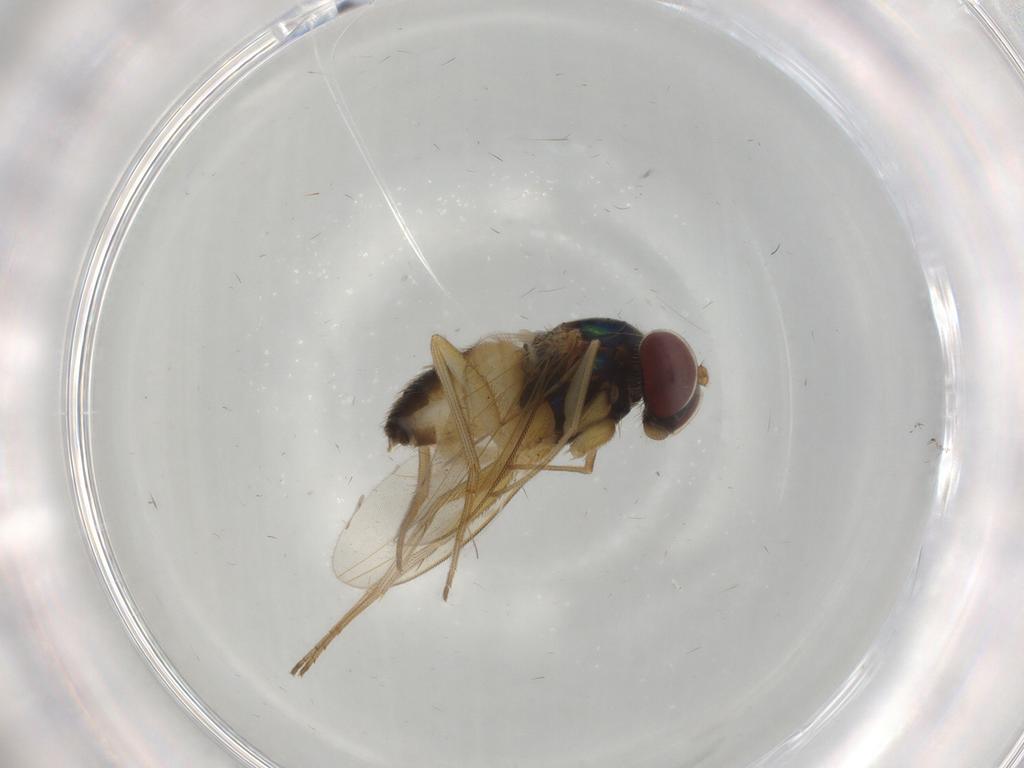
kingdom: Animalia
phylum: Arthropoda
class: Insecta
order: Diptera
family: Dolichopodidae
